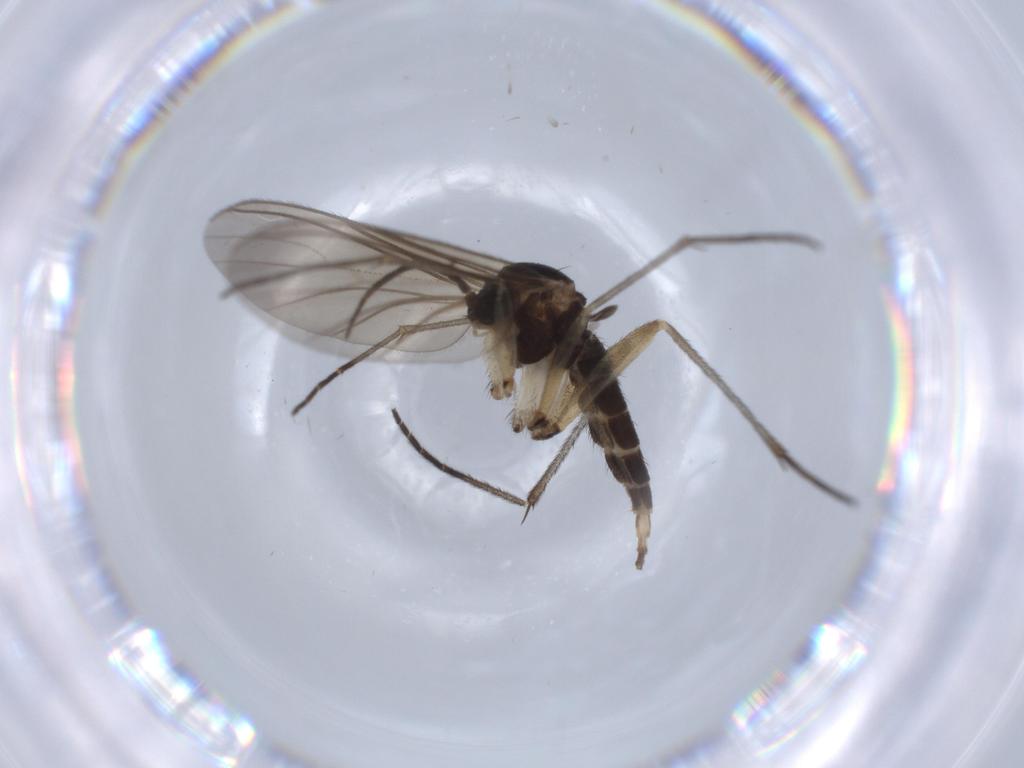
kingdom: Animalia
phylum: Arthropoda
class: Insecta
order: Diptera
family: Sciaridae
